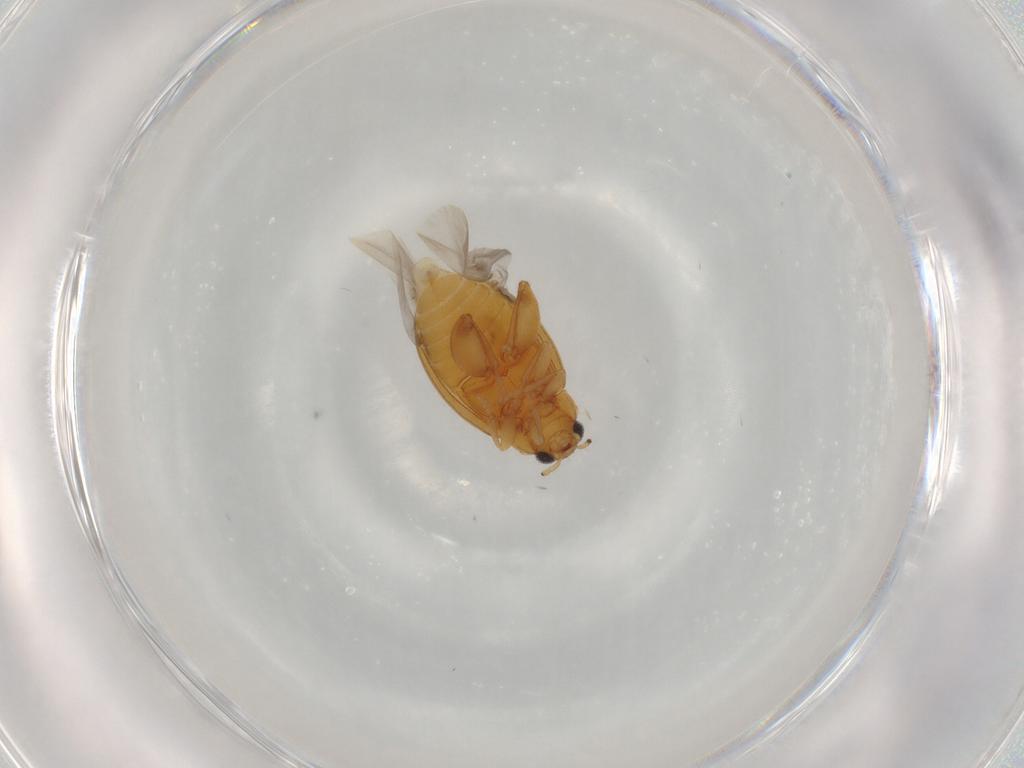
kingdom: Animalia
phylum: Arthropoda
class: Insecta
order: Coleoptera
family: Chrysomelidae
